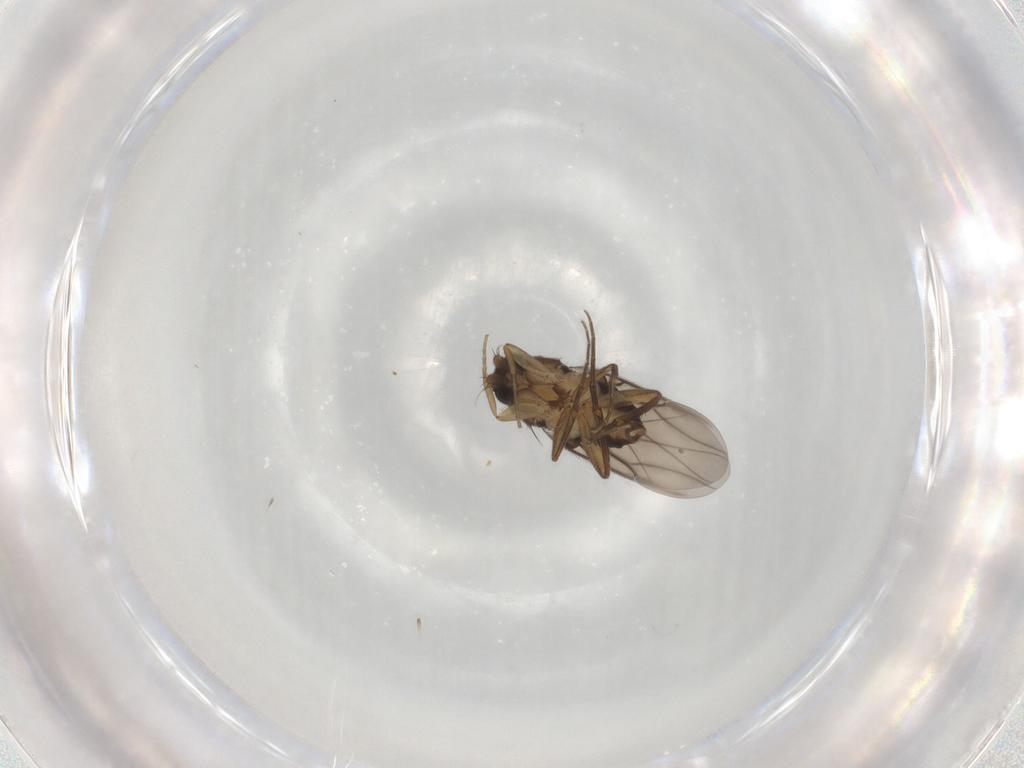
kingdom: Animalia
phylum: Arthropoda
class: Insecta
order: Diptera
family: Phoridae
